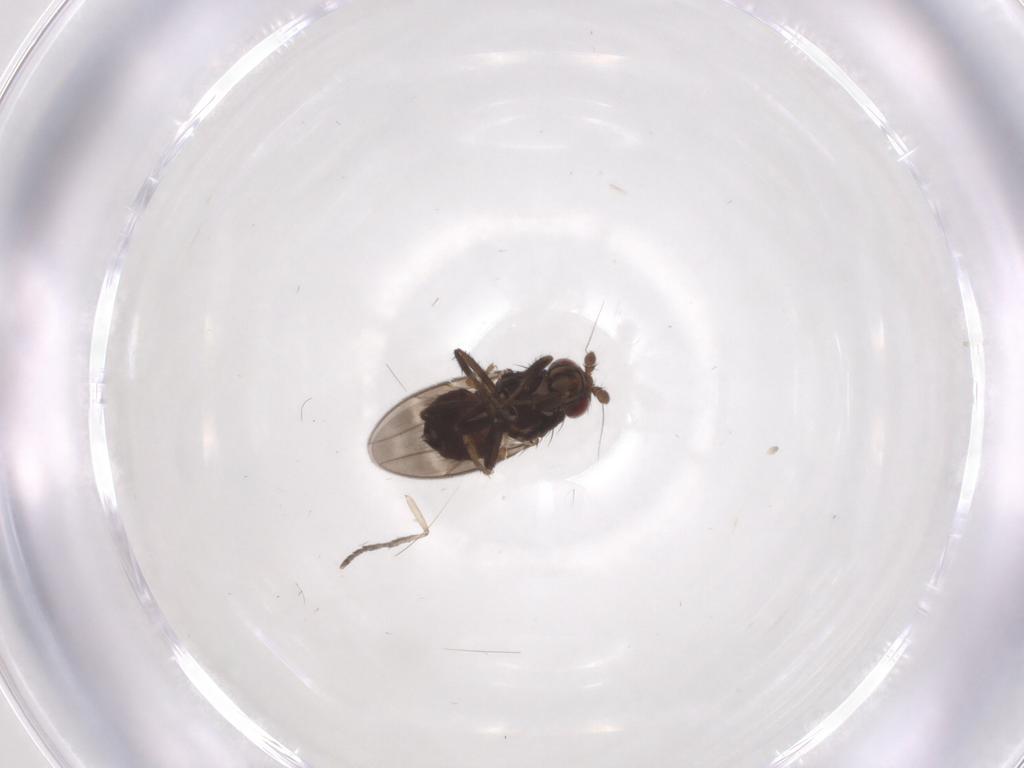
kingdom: Animalia
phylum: Arthropoda
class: Insecta
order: Diptera
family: Sphaeroceridae
